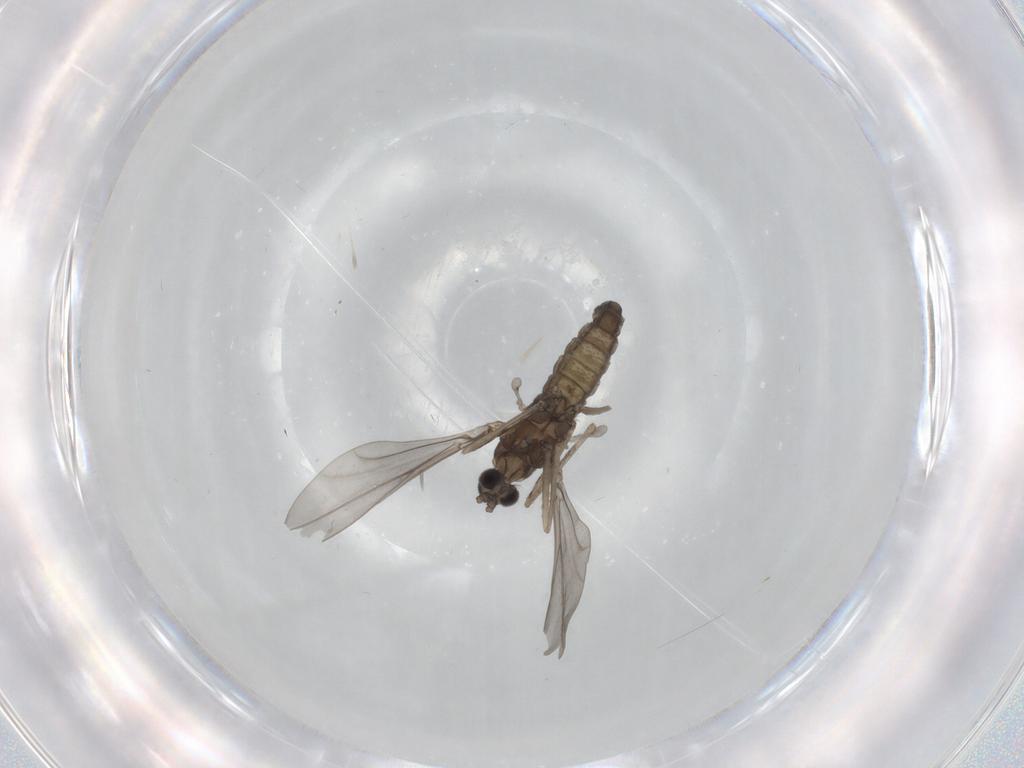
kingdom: Animalia
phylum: Arthropoda
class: Insecta
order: Diptera
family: Cecidomyiidae
